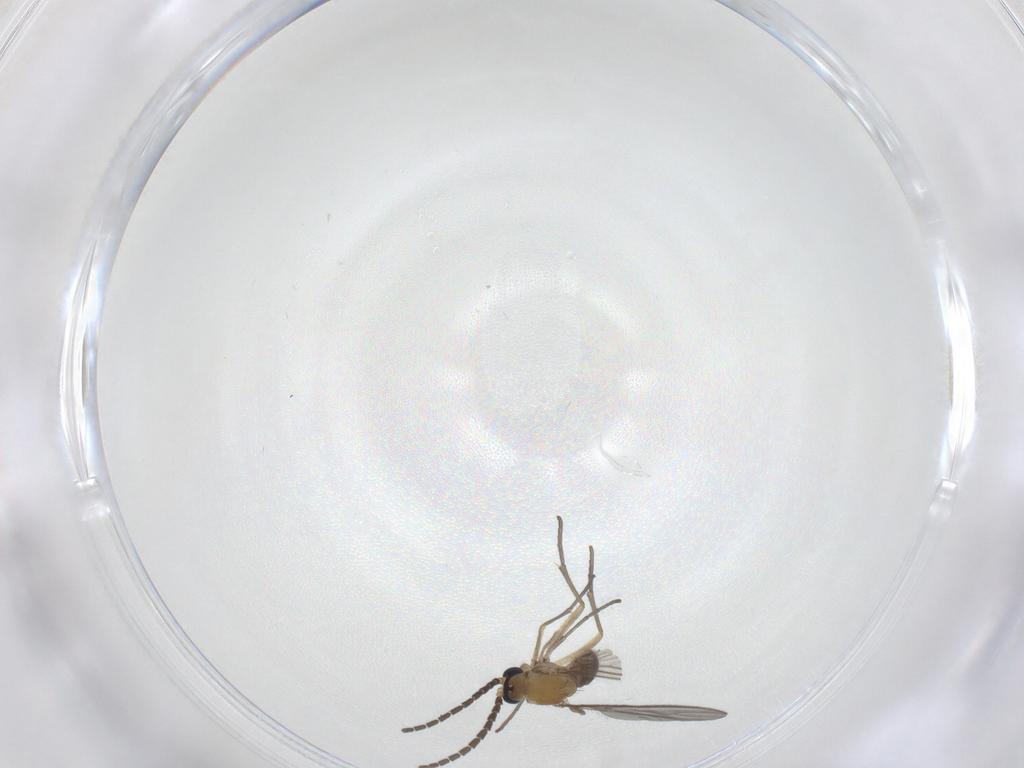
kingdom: Animalia
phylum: Arthropoda
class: Insecta
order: Diptera
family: Sciaridae
